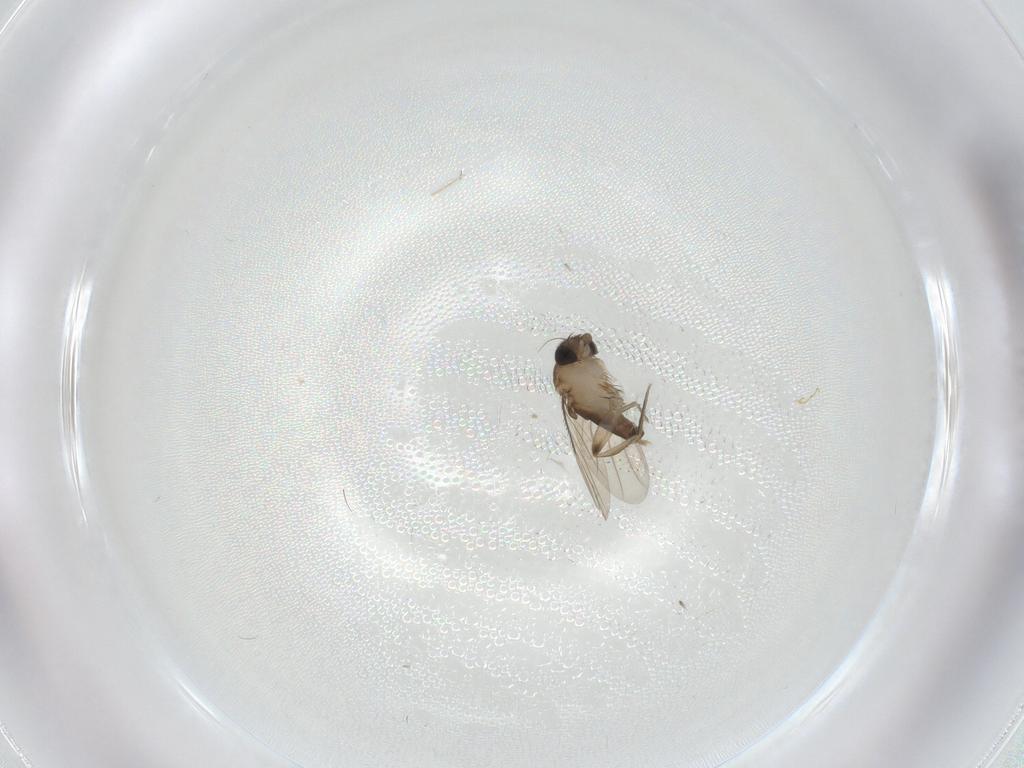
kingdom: Animalia
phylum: Arthropoda
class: Insecta
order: Diptera
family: Phoridae
